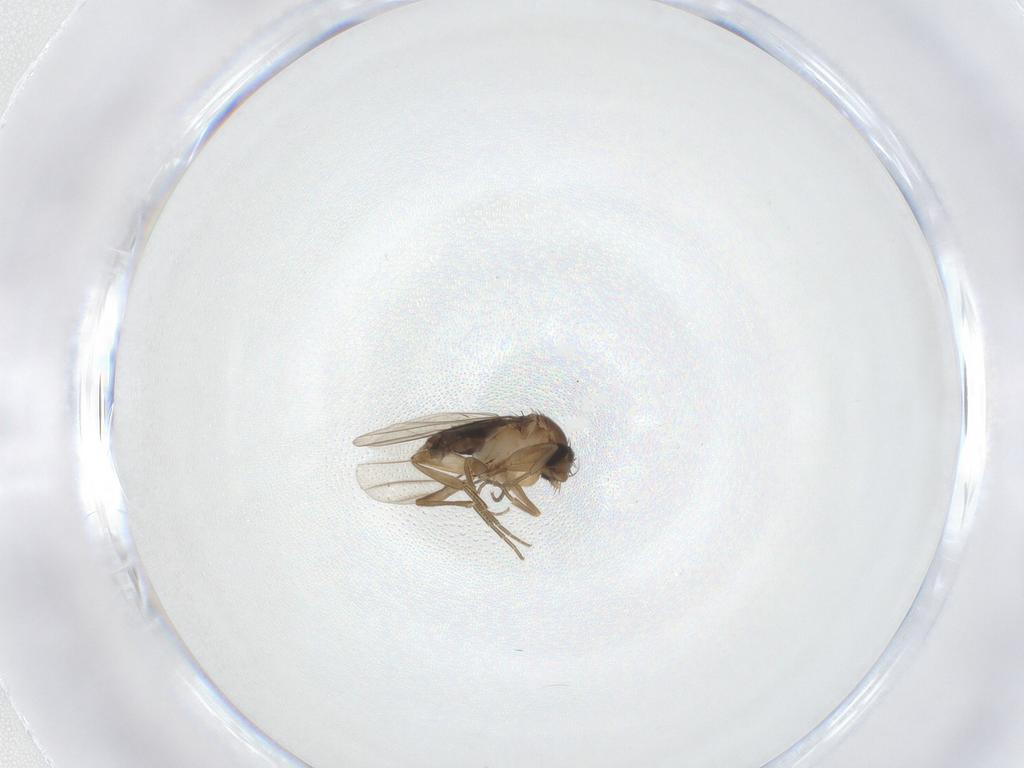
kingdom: Animalia
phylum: Arthropoda
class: Insecta
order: Diptera
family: Phoridae
